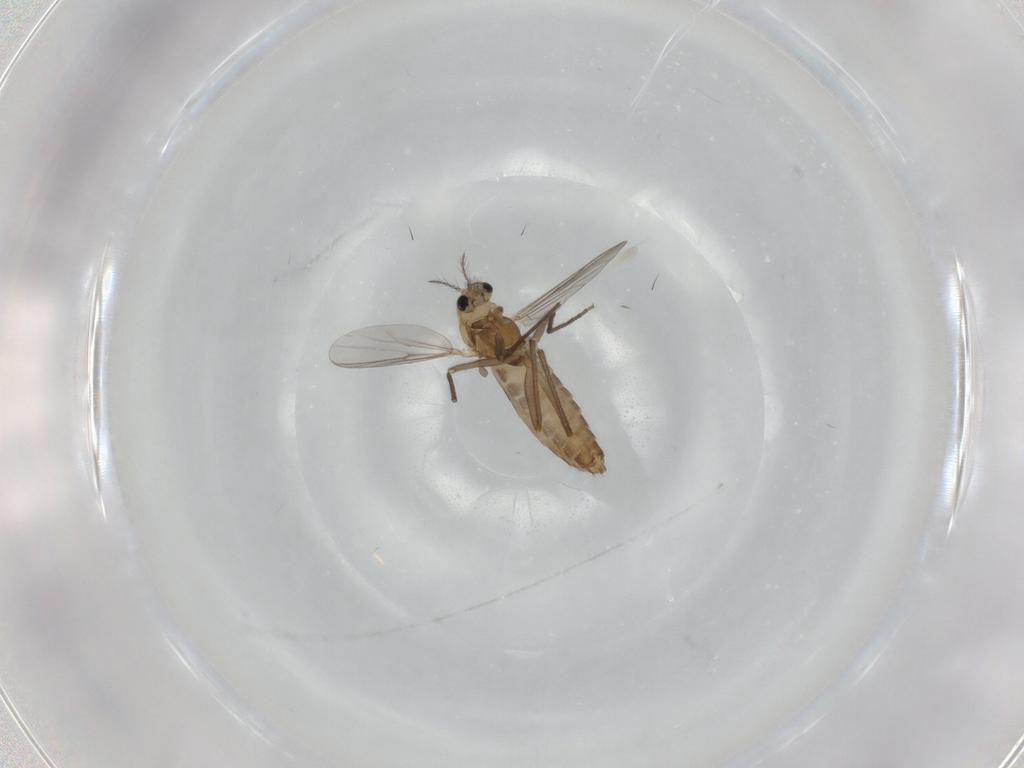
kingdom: Animalia
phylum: Arthropoda
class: Insecta
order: Diptera
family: Chironomidae
